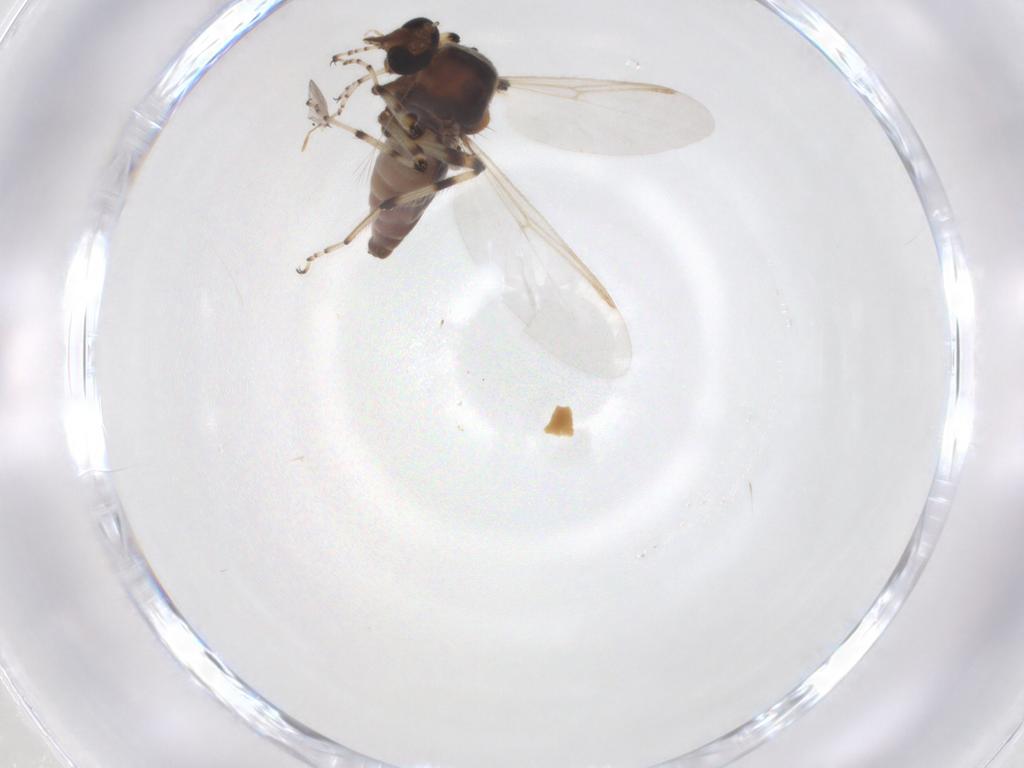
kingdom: Animalia
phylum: Arthropoda
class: Insecta
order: Diptera
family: Ceratopogonidae
